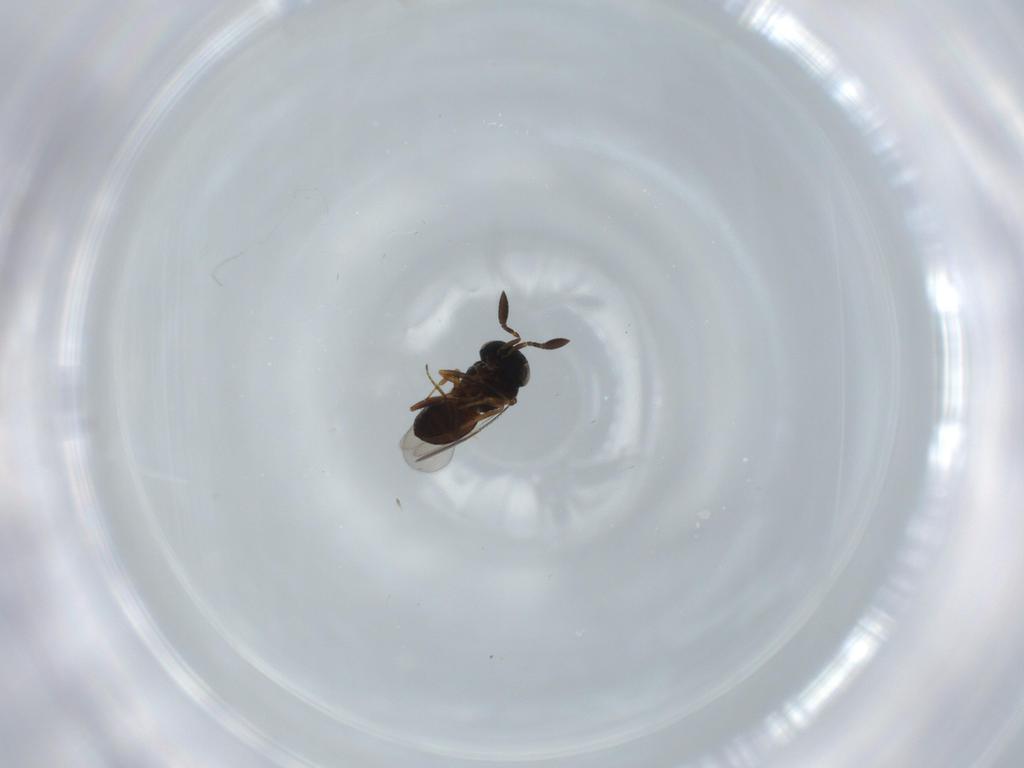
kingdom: Animalia
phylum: Arthropoda
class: Insecta
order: Hymenoptera
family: Scelionidae
